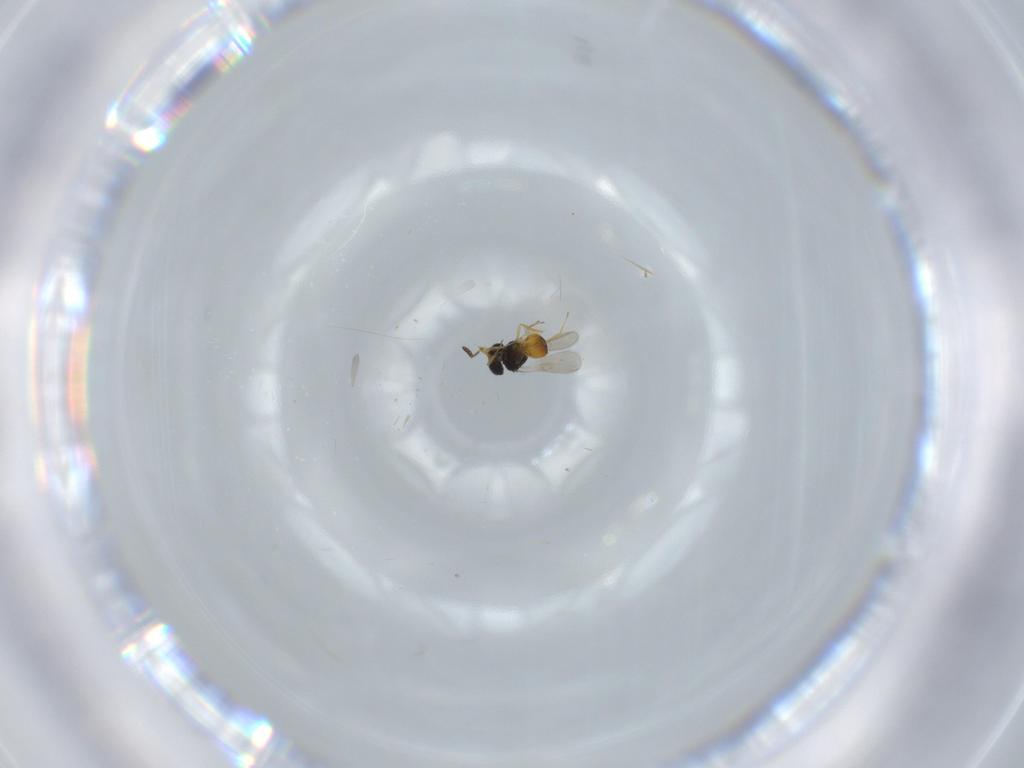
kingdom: Animalia
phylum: Arthropoda
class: Insecta
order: Hymenoptera
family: Scelionidae
